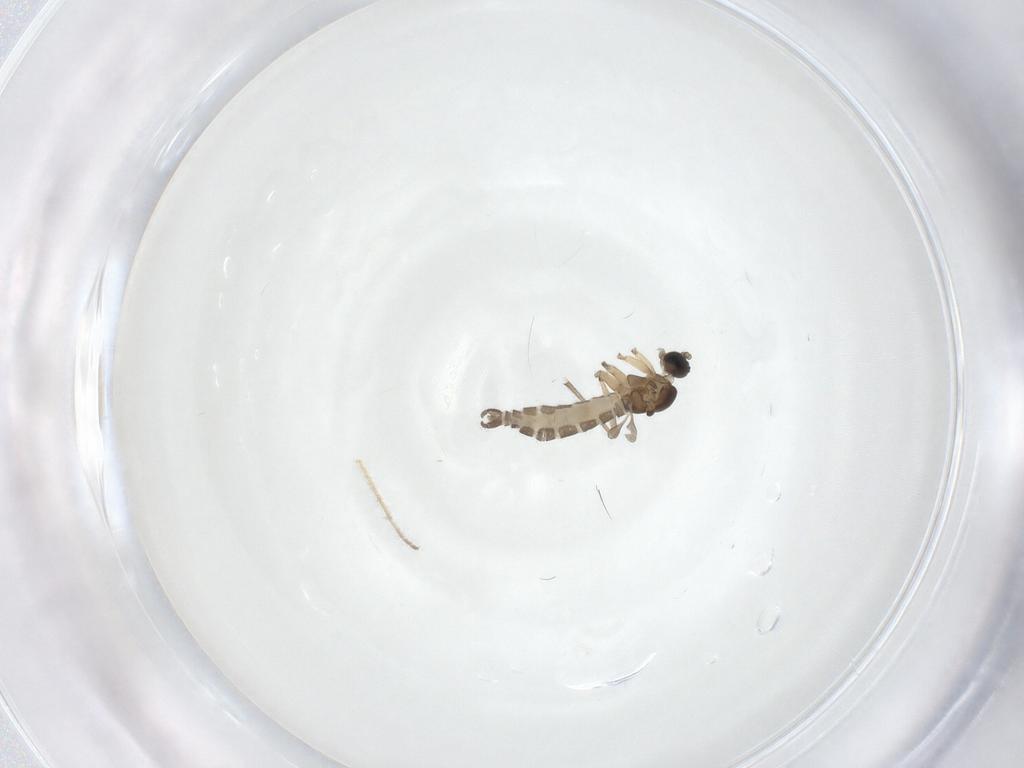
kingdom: Animalia
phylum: Arthropoda
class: Insecta
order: Diptera
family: Sciaridae
